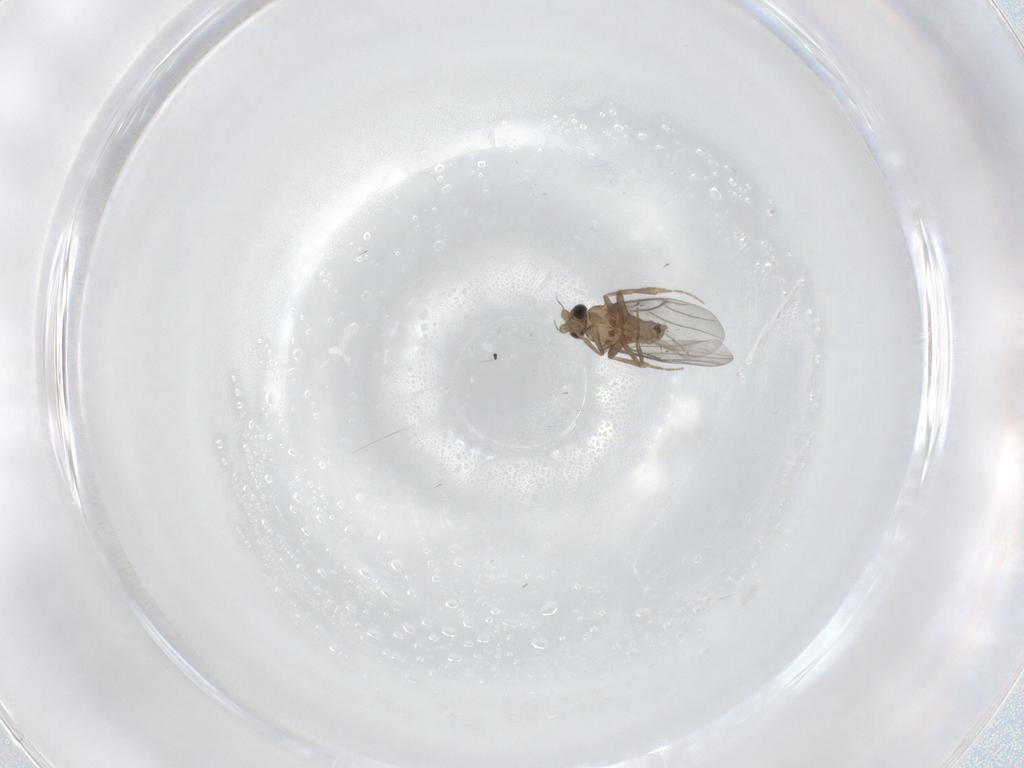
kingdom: Animalia
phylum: Arthropoda
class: Insecta
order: Diptera
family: Limoniidae
